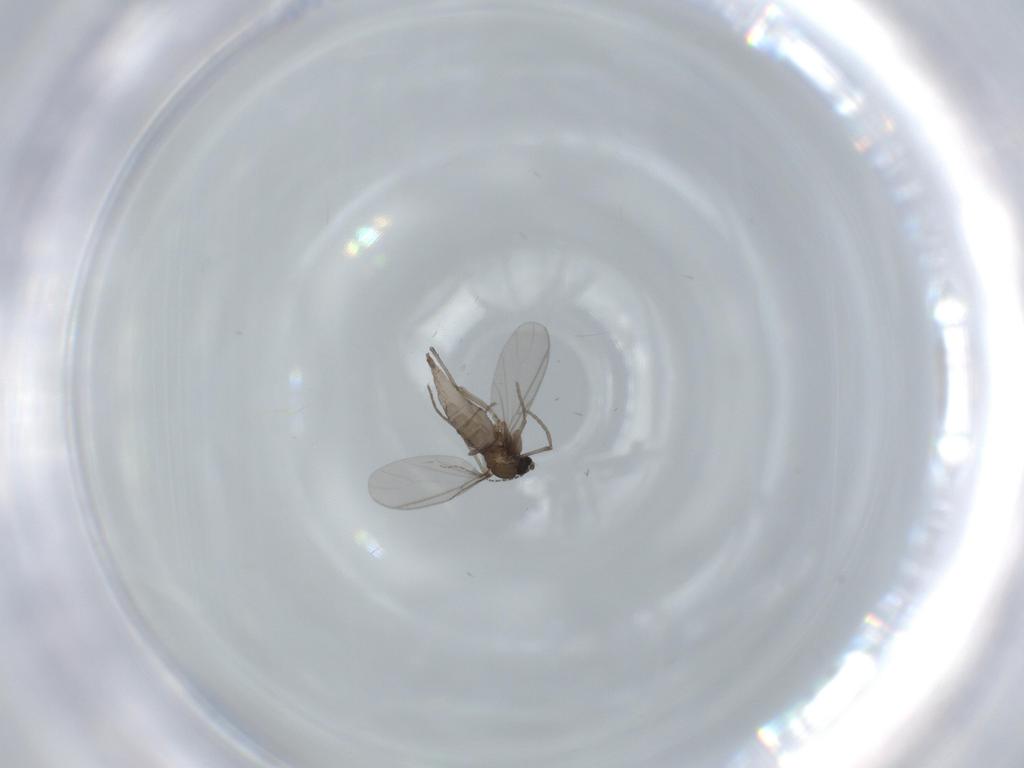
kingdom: Animalia
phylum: Arthropoda
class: Insecta
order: Diptera
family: Sciaridae
